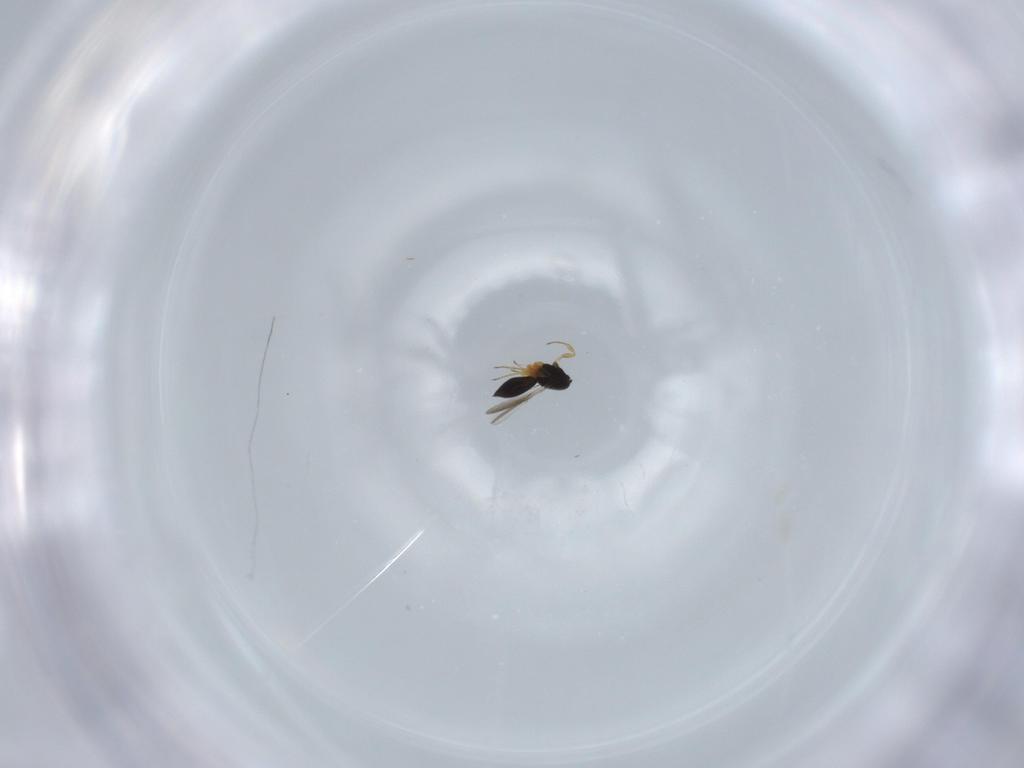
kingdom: Animalia
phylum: Arthropoda
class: Insecta
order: Hymenoptera
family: Scelionidae
